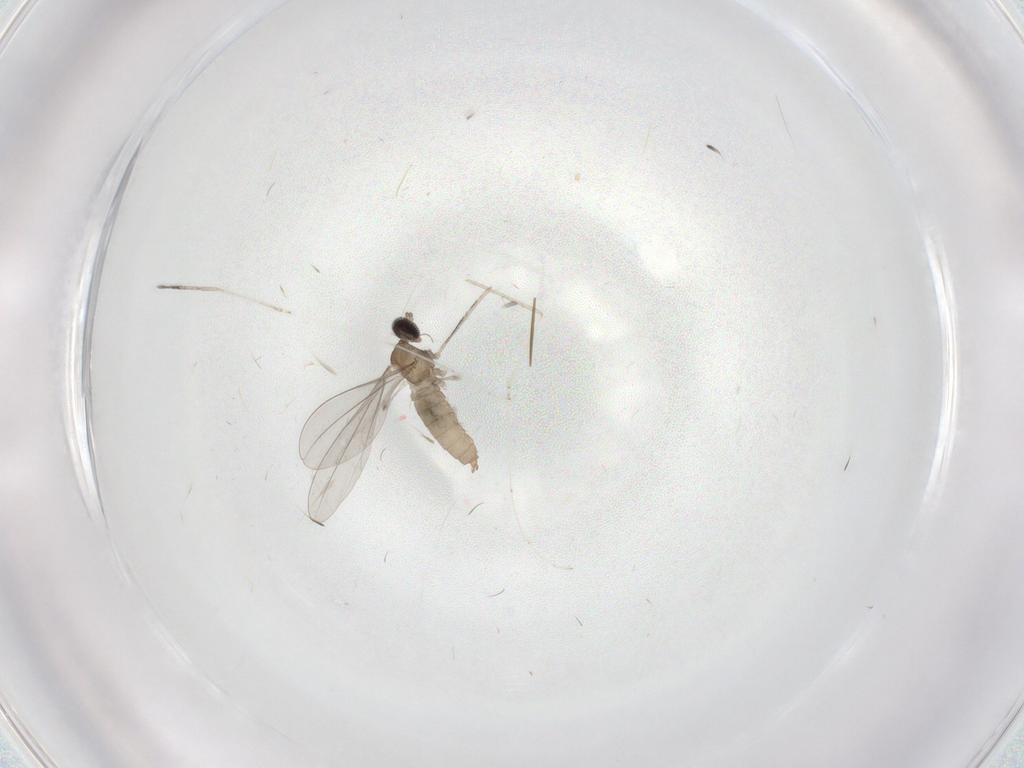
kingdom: Animalia
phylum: Arthropoda
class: Insecta
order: Diptera
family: Cecidomyiidae
